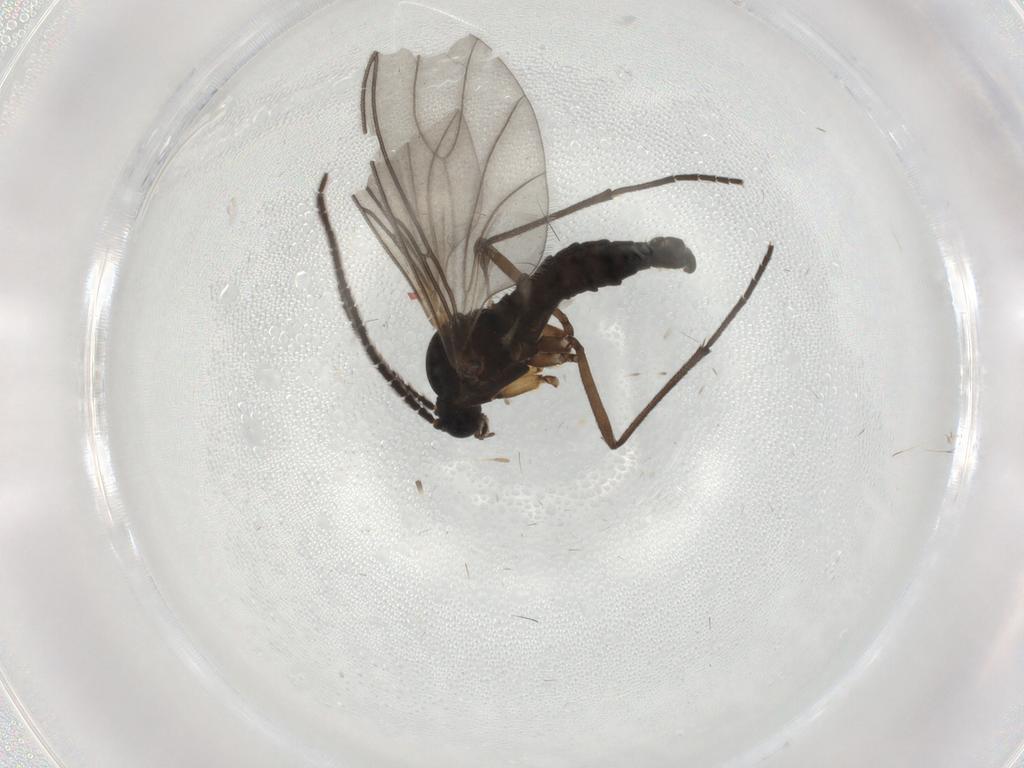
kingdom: Animalia
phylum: Arthropoda
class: Insecta
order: Diptera
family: Sciaridae
